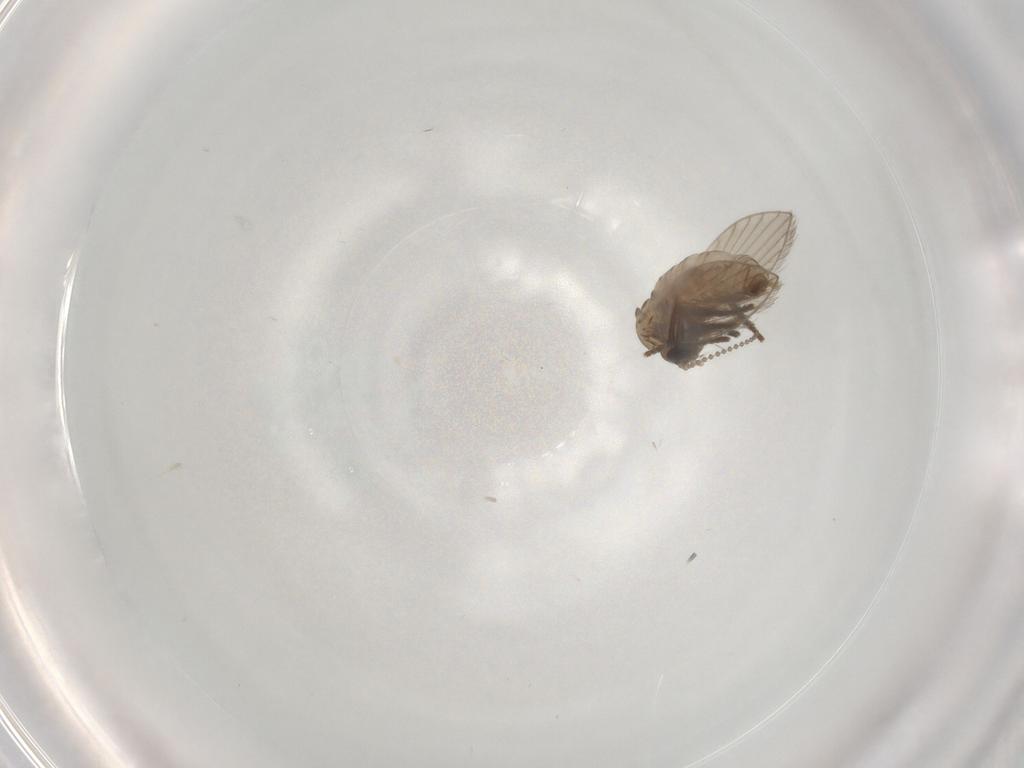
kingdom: Animalia
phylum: Arthropoda
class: Insecta
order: Diptera
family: Psychodidae
